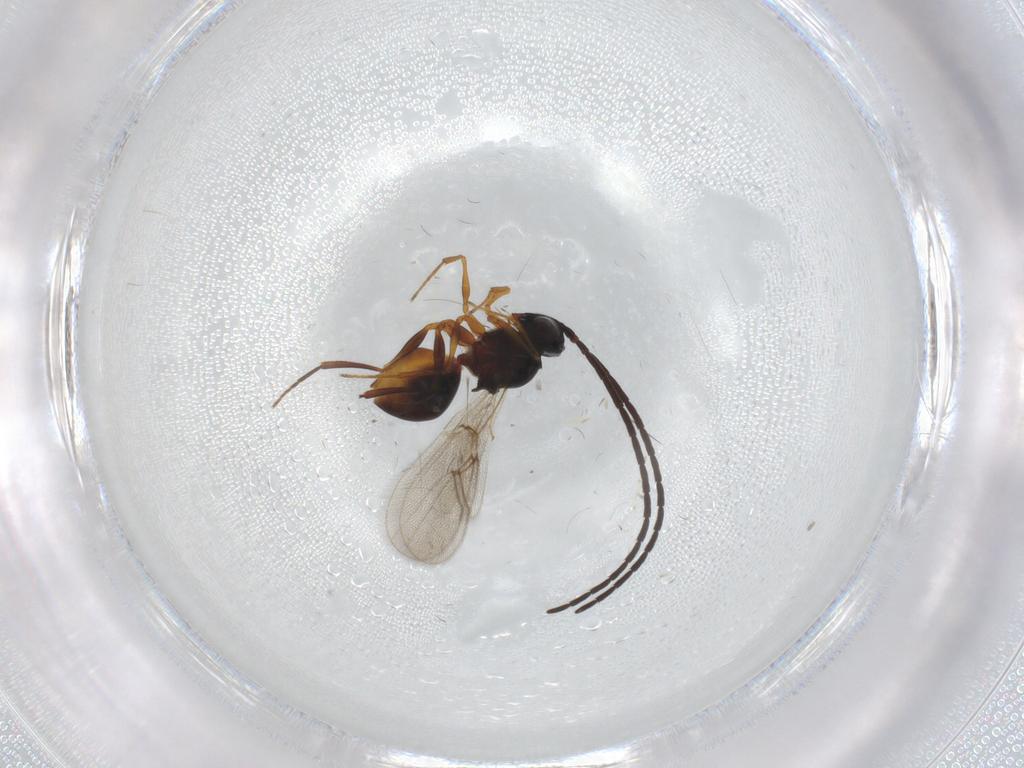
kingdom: Animalia
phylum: Arthropoda
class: Insecta
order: Hymenoptera
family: Figitidae
